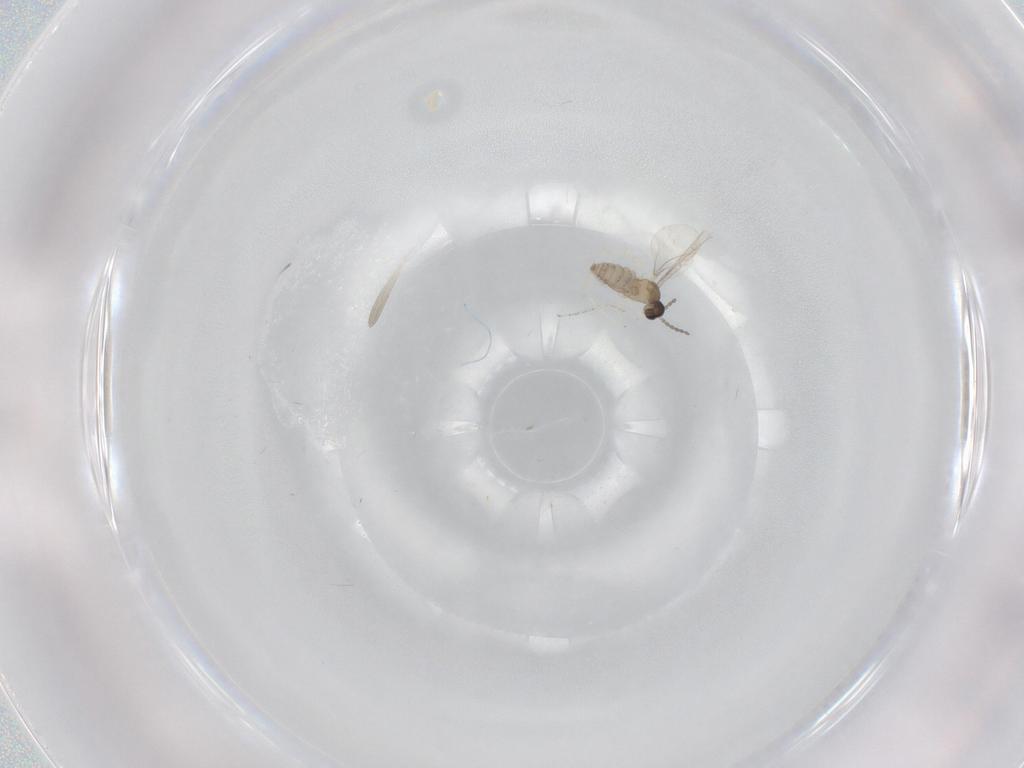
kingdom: Animalia
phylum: Arthropoda
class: Insecta
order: Diptera
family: Cecidomyiidae
